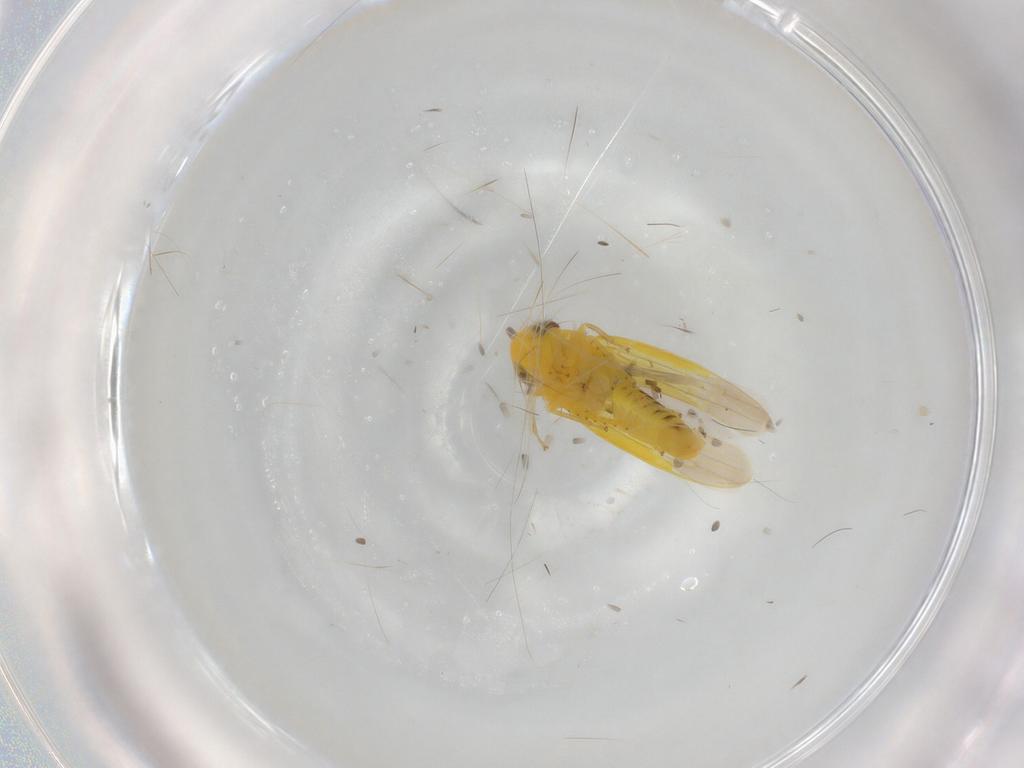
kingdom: Animalia
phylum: Arthropoda
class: Insecta
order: Hemiptera
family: Cicadellidae
